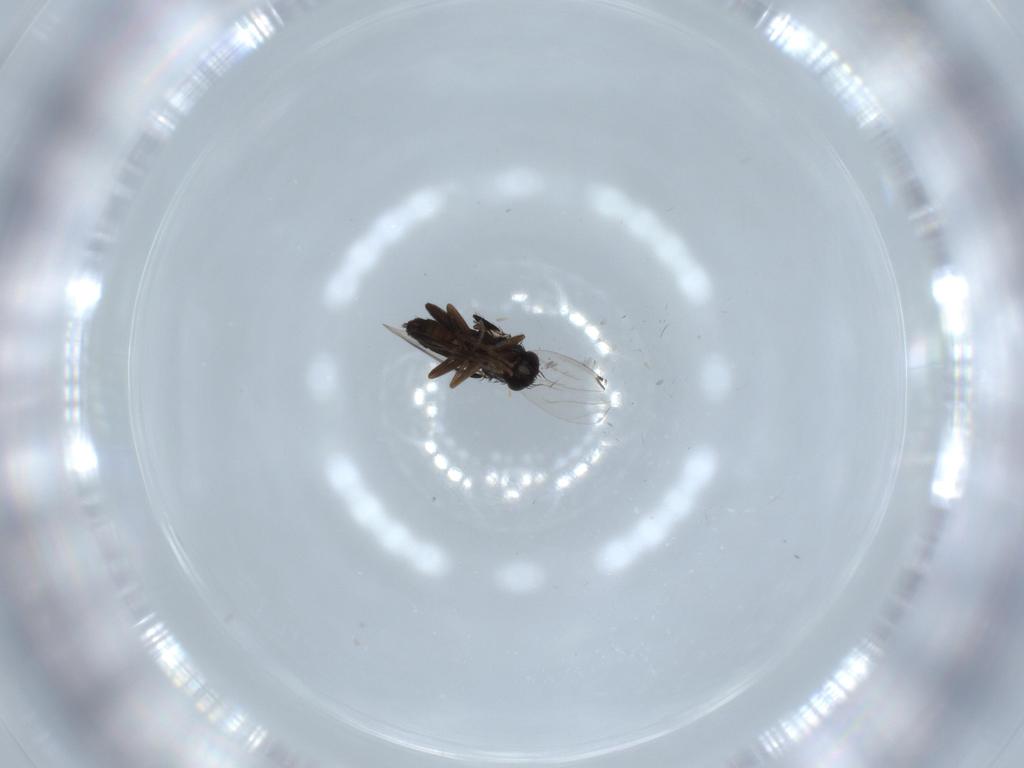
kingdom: Animalia
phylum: Arthropoda
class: Insecta
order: Diptera
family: Phoridae
